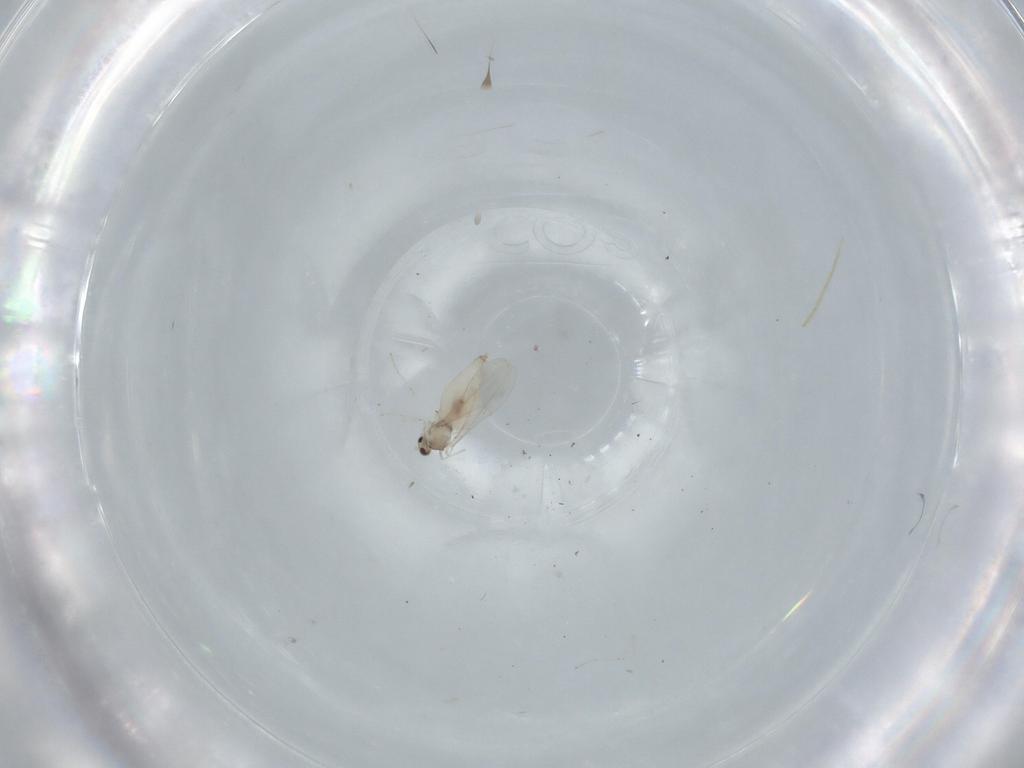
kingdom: Animalia
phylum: Arthropoda
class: Insecta
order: Diptera
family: Cecidomyiidae
